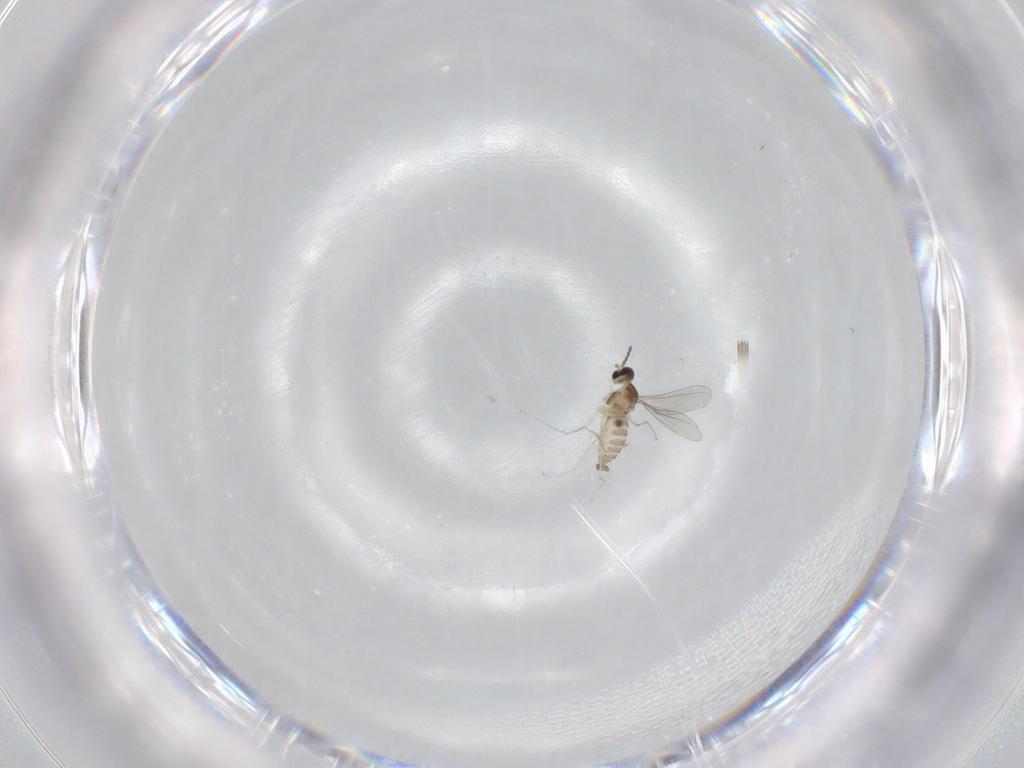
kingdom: Animalia
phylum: Arthropoda
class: Insecta
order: Diptera
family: Cecidomyiidae
